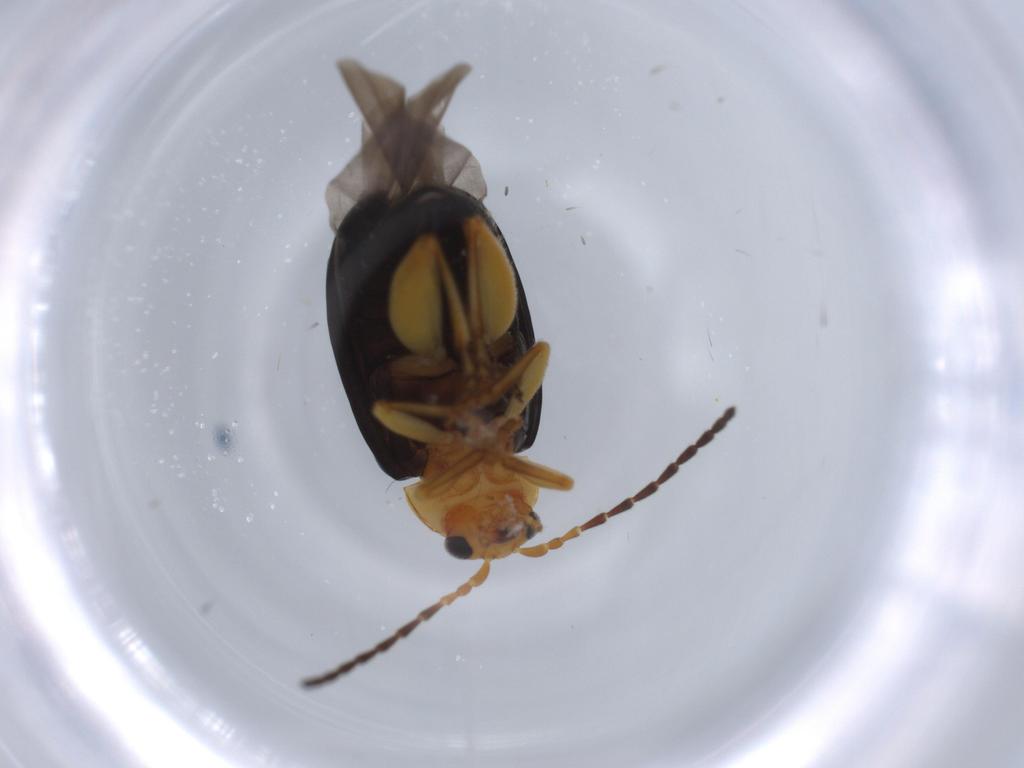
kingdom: Animalia
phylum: Arthropoda
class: Insecta
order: Coleoptera
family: Chrysomelidae
